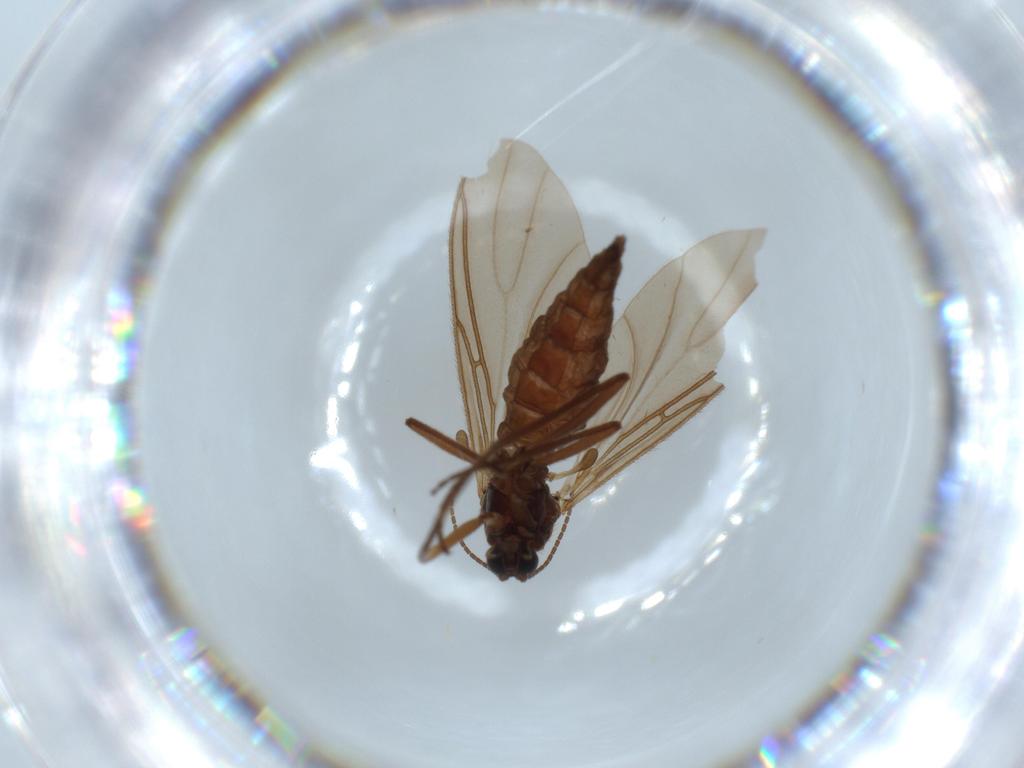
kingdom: Animalia
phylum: Arthropoda
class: Insecta
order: Diptera
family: Sciaridae
